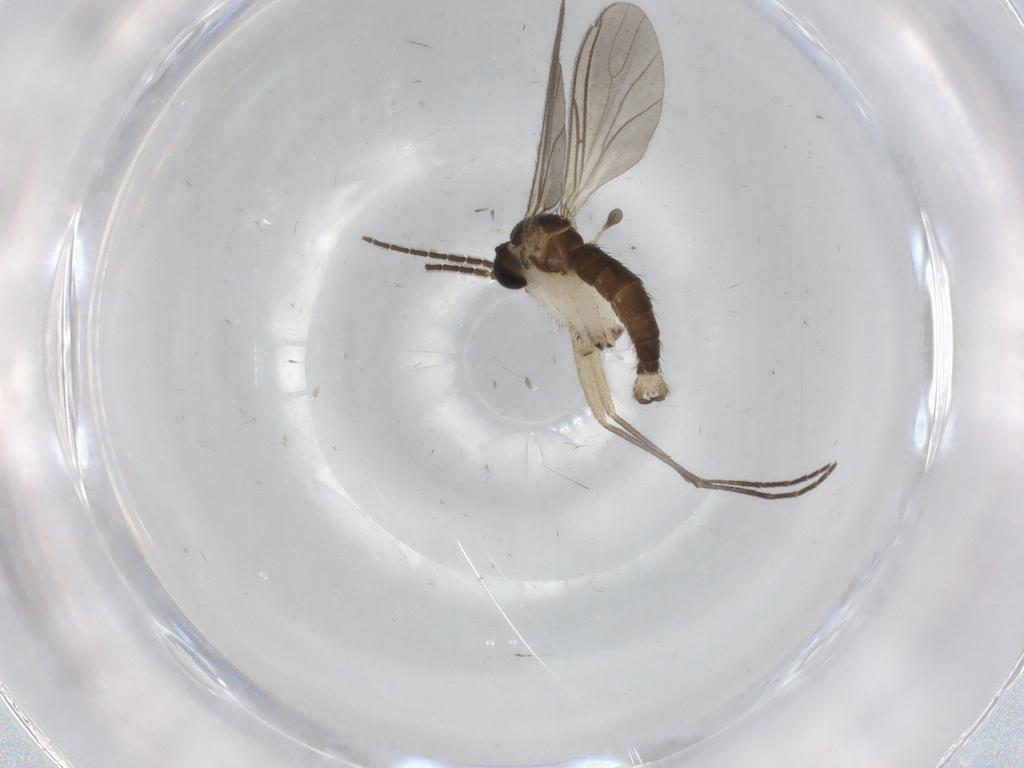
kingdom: Animalia
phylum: Arthropoda
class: Insecta
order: Diptera
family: Sciaridae
